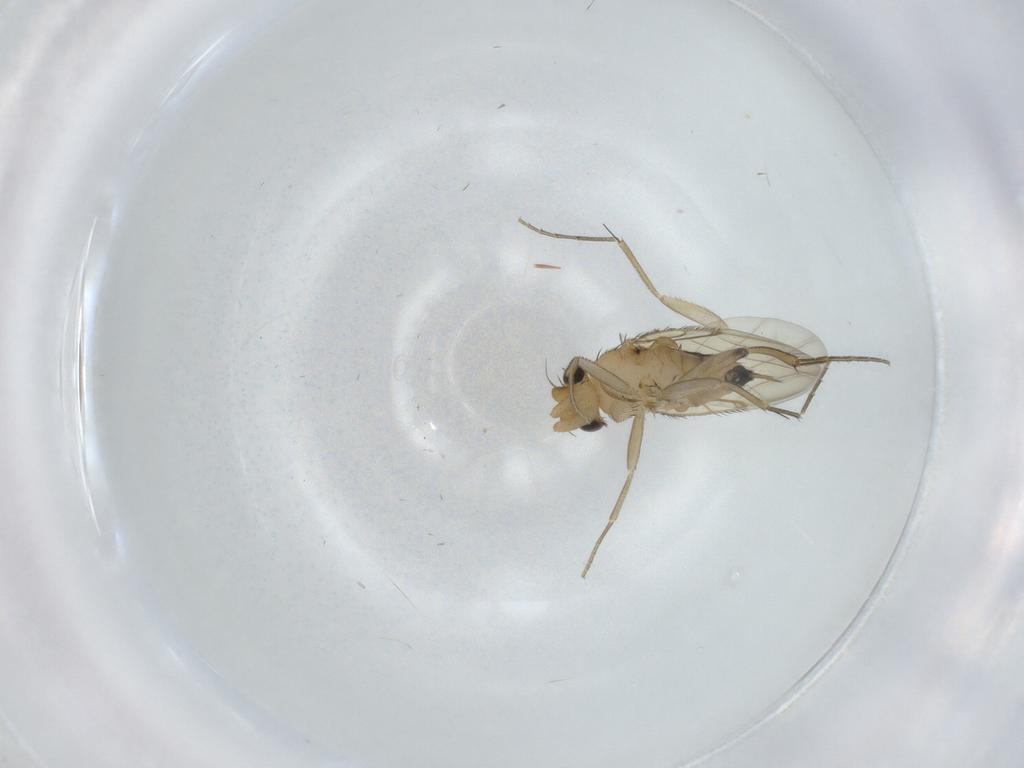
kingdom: Animalia
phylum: Arthropoda
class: Insecta
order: Diptera
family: Phoridae
